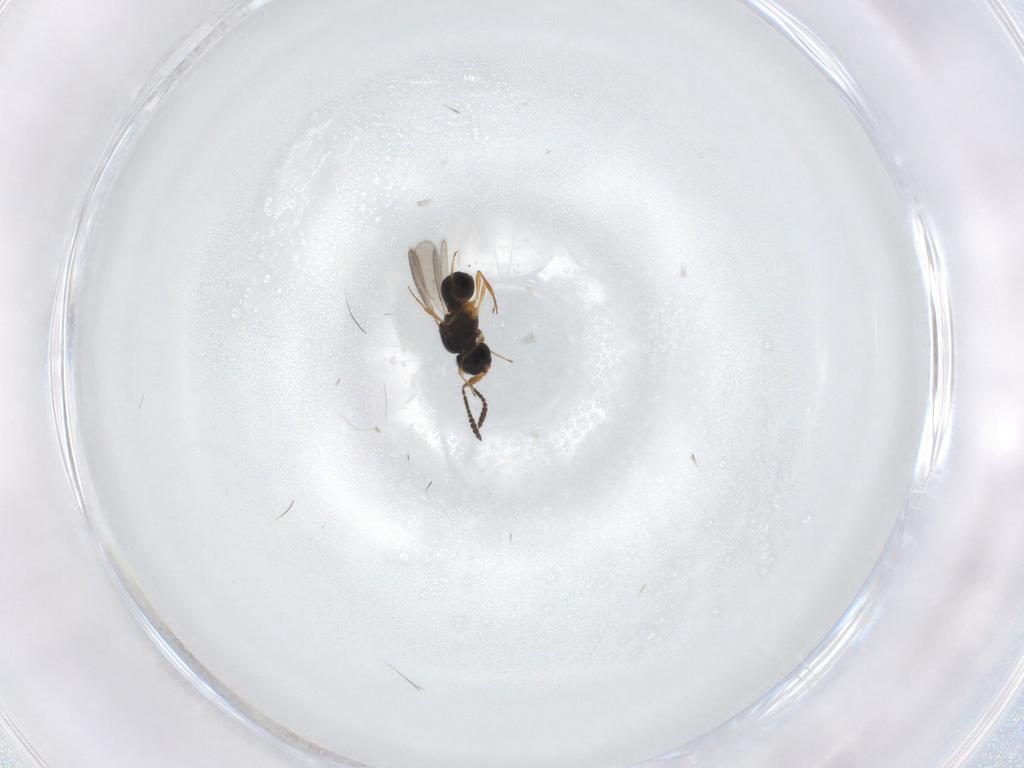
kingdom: Animalia
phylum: Arthropoda
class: Insecta
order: Hymenoptera
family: Scelionidae
